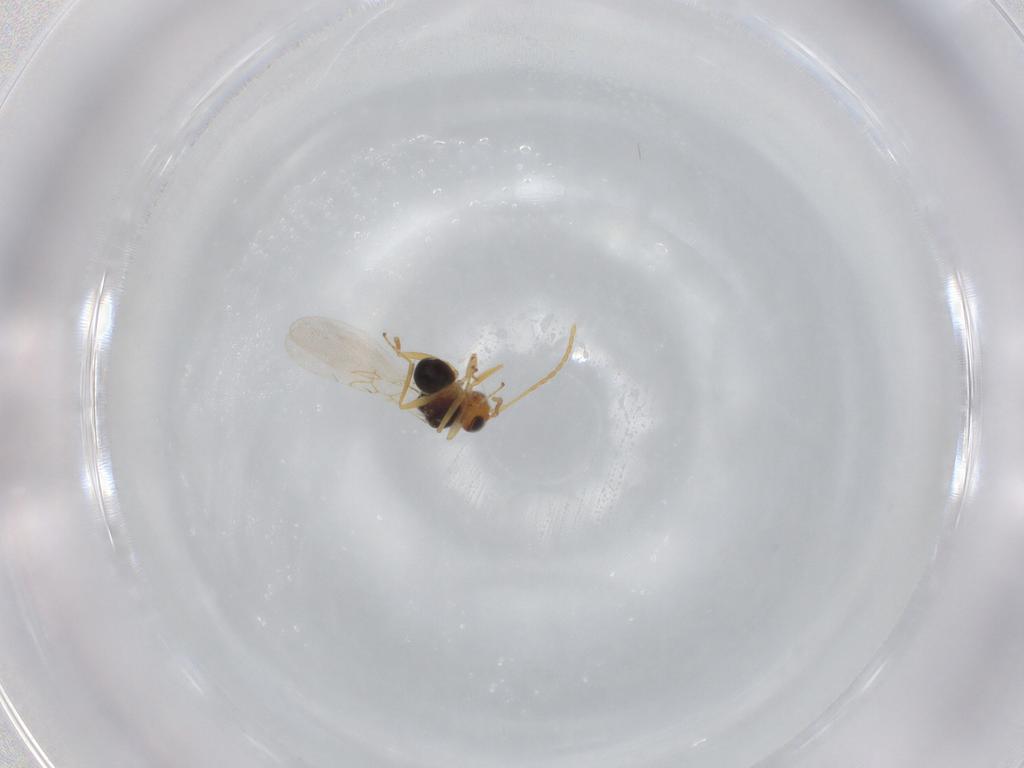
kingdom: Animalia
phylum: Arthropoda
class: Insecta
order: Hymenoptera
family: Figitidae
